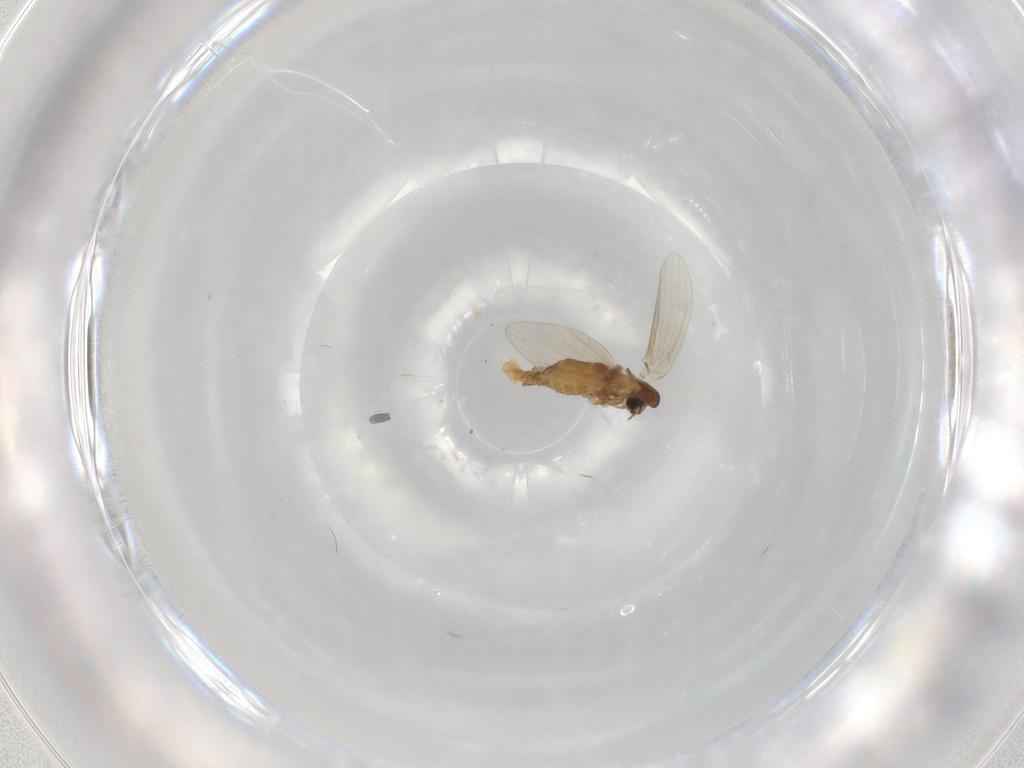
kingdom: Animalia
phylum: Arthropoda
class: Insecta
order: Diptera
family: Psychodidae
